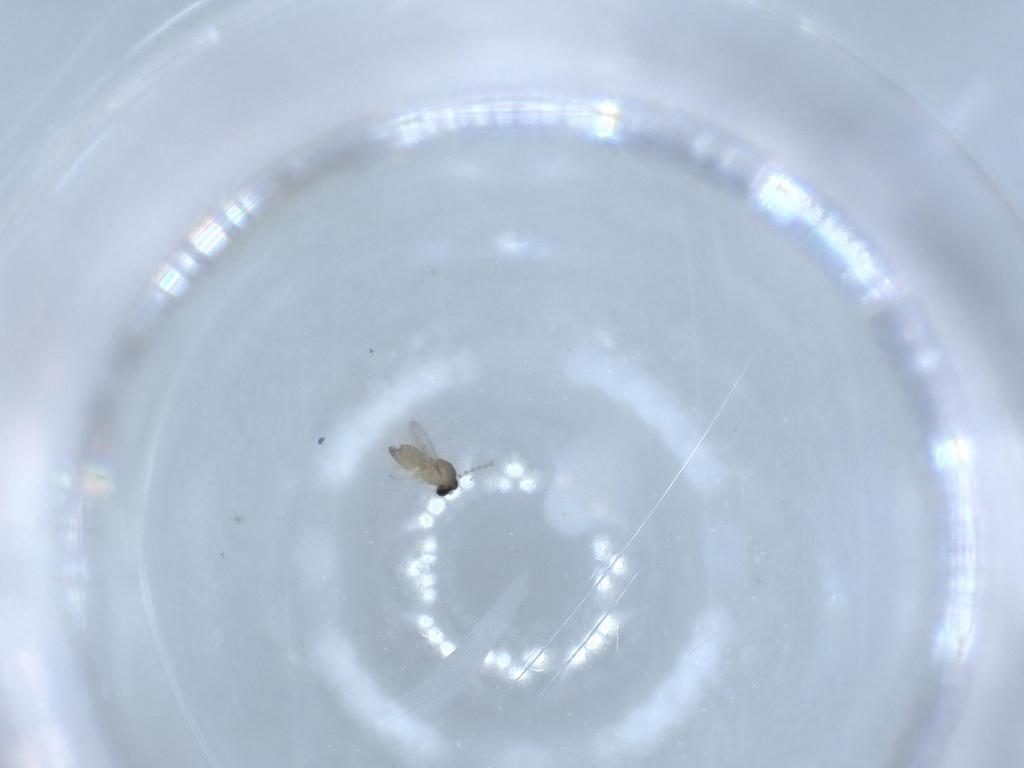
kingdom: Animalia
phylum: Arthropoda
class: Insecta
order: Diptera
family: Cecidomyiidae
